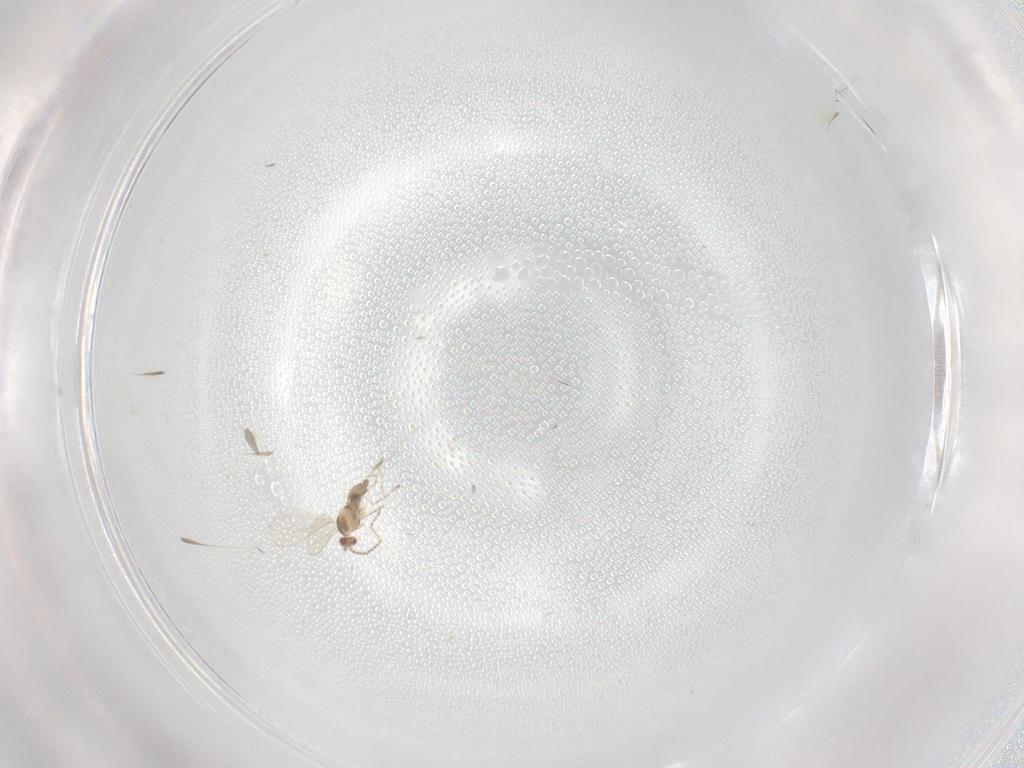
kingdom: Animalia
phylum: Arthropoda
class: Insecta
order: Diptera
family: Cecidomyiidae
